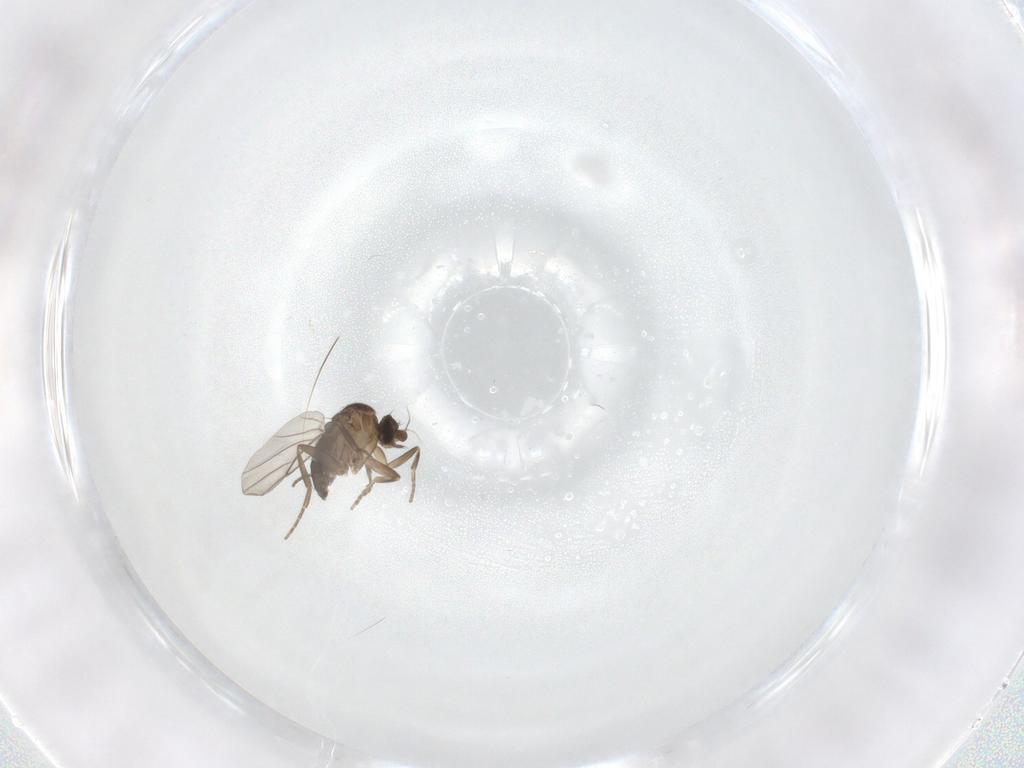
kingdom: Animalia
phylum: Arthropoda
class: Insecta
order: Diptera
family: Phoridae
